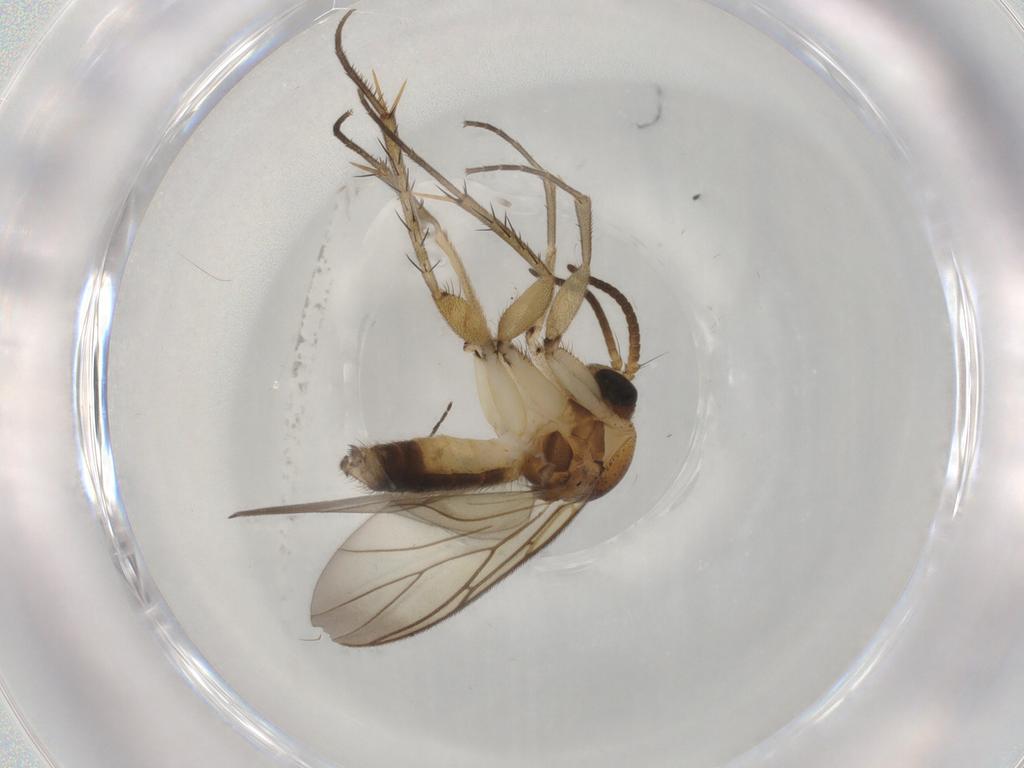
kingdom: Animalia
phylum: Arthropoda
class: Insecta
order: Diptera
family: Mycetophilidae
